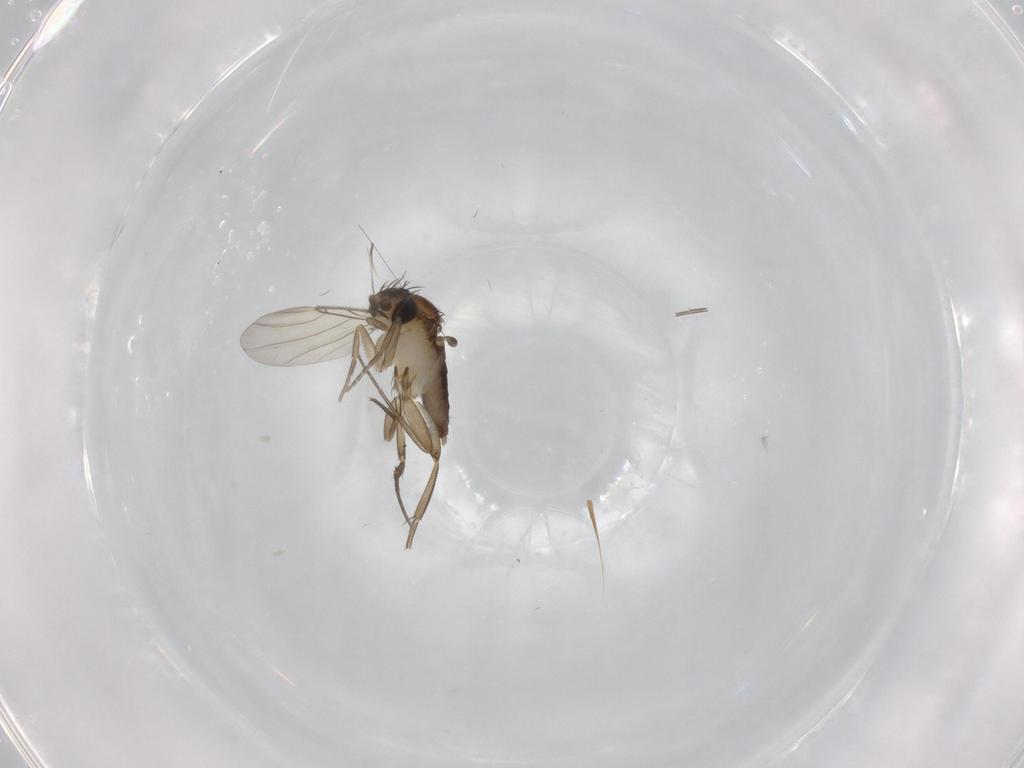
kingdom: Animalia
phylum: Arthropoda
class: Insecta
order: Diptera
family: Phoridae
